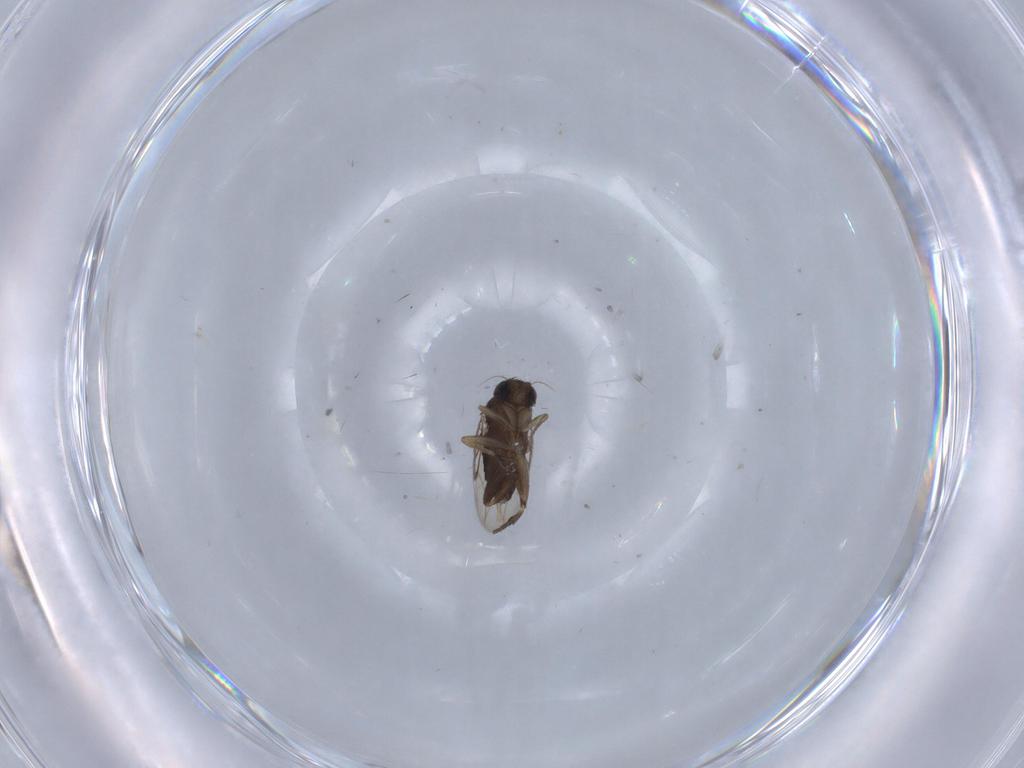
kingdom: Animalia
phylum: Arthropoda
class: Insecta
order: Diptera
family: Phoridae
